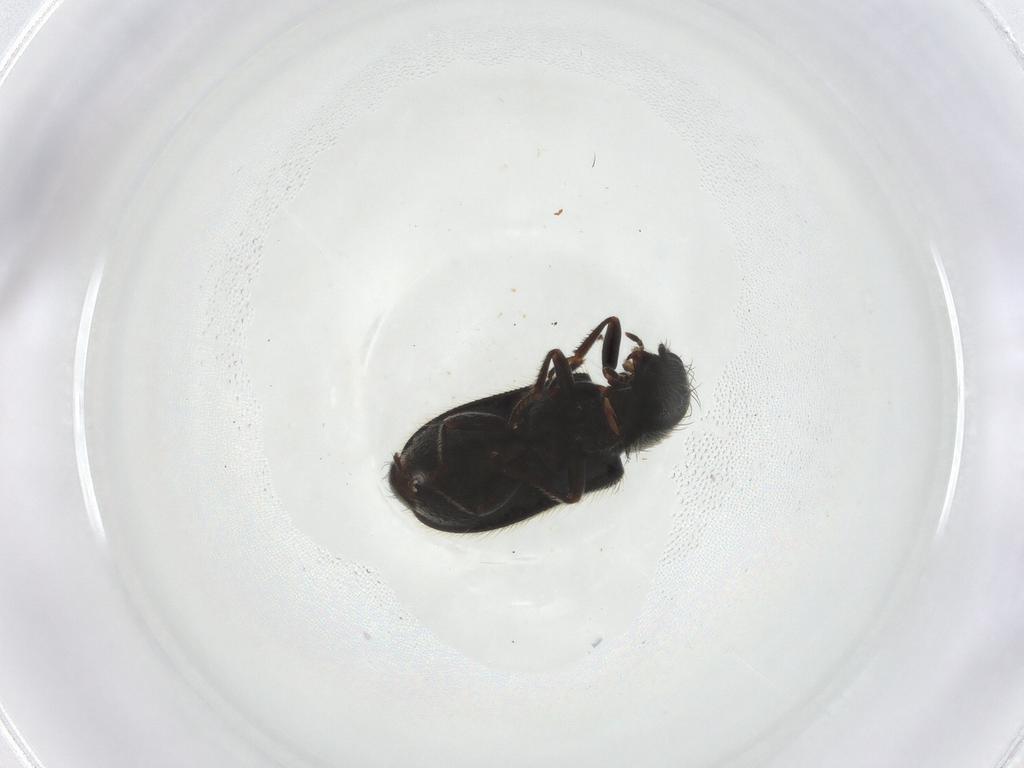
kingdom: Animalia
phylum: Arthropoda
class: Insecta
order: Coleoptera
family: Melyridae
